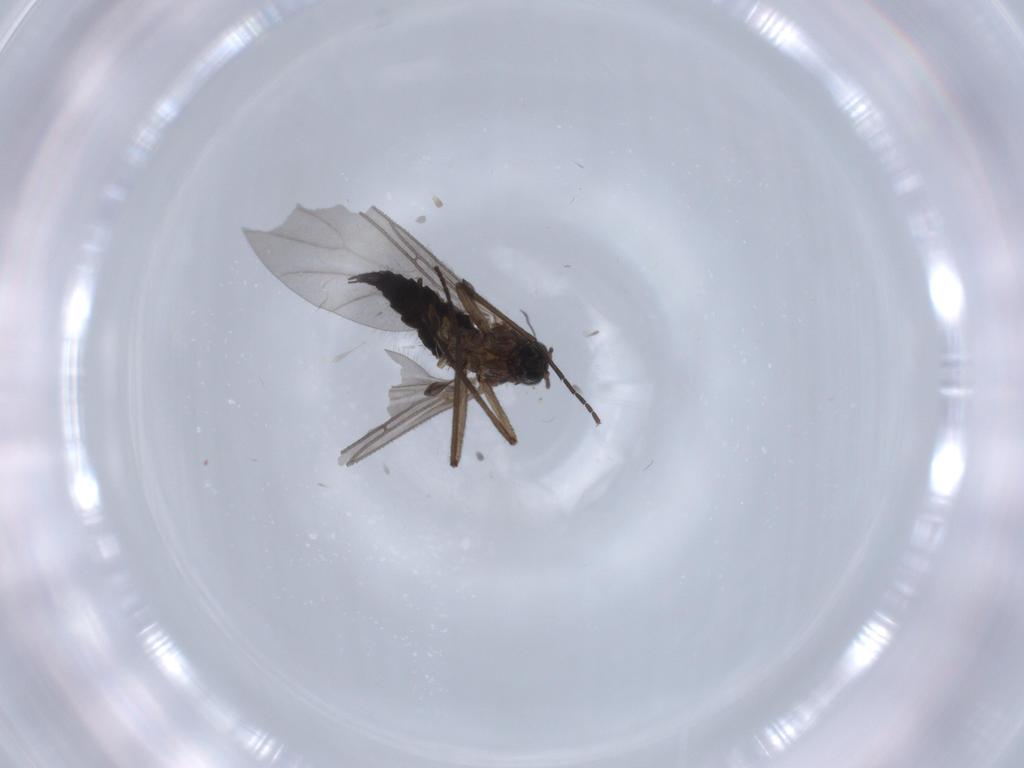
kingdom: Animalia
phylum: Arthropoda
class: Insecta
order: Diptera
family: Sciaridae
